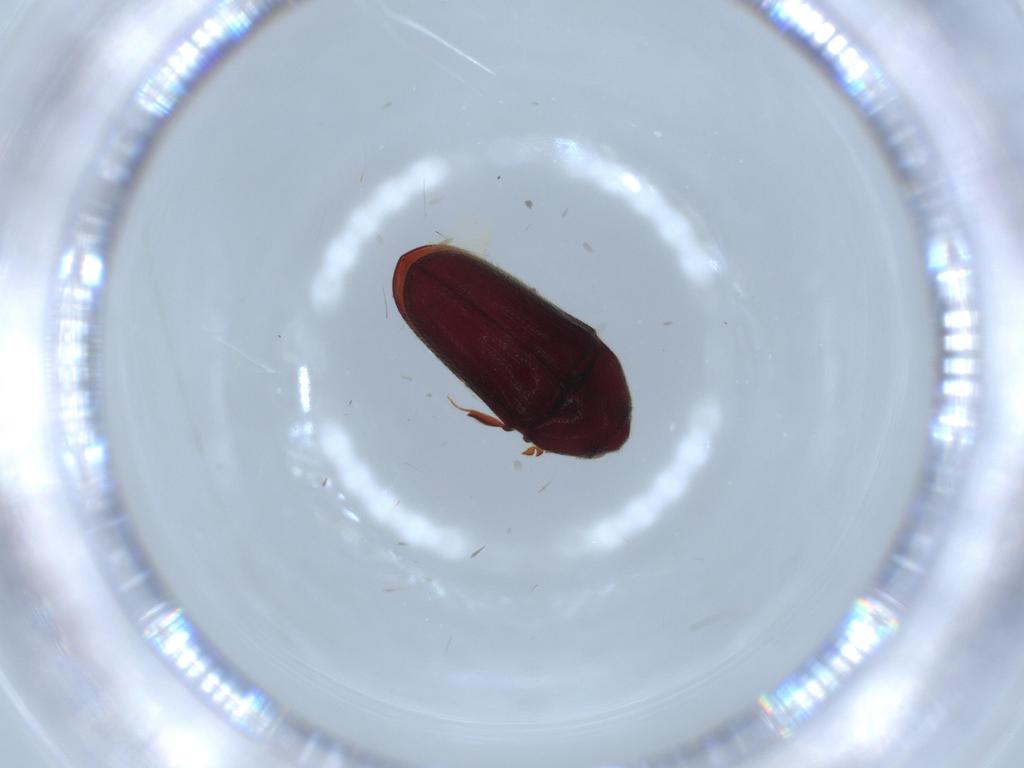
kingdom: Animalia
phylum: Arthropoda
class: Insecta
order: Coleoptera
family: Throscidae
